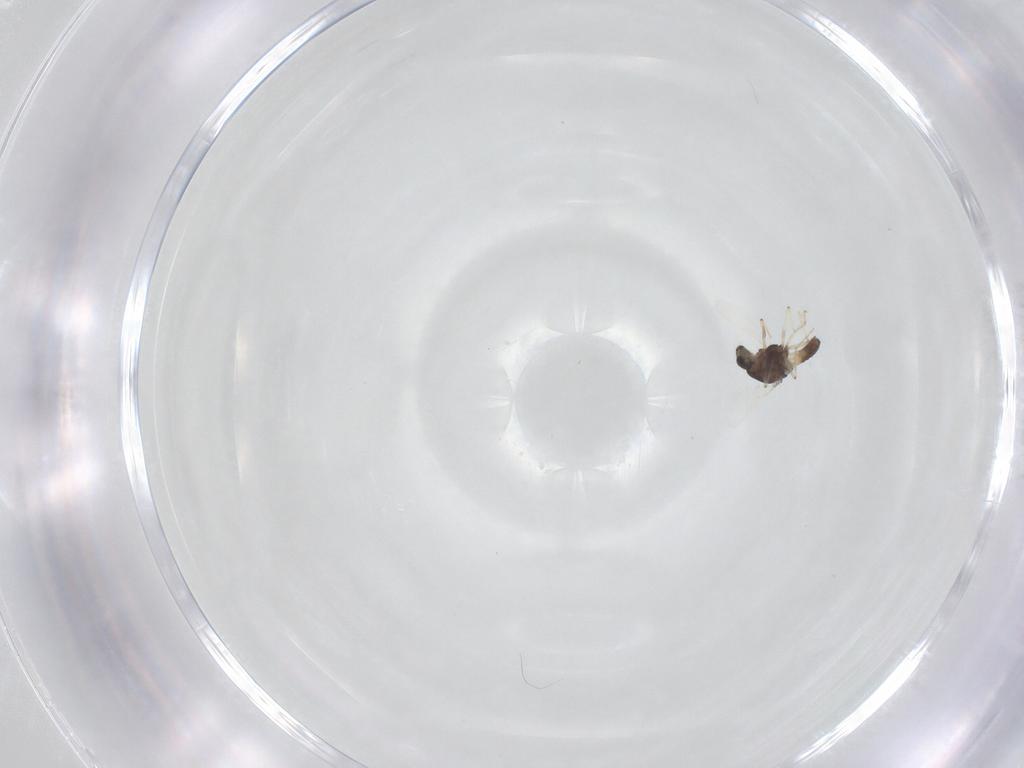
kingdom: Animalia
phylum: Arthropoda
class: Insecta
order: Diptera
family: Chironomidae
